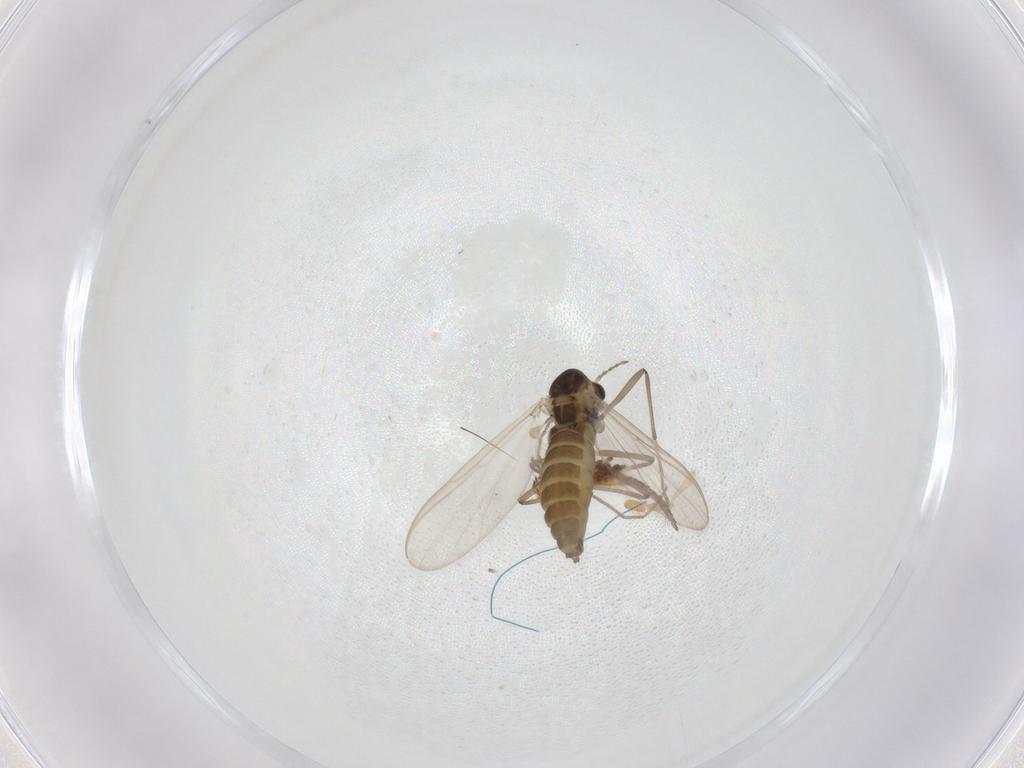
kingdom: Animalia
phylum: Arthropoda
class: Insecta
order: Diptera
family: Chironomidae
